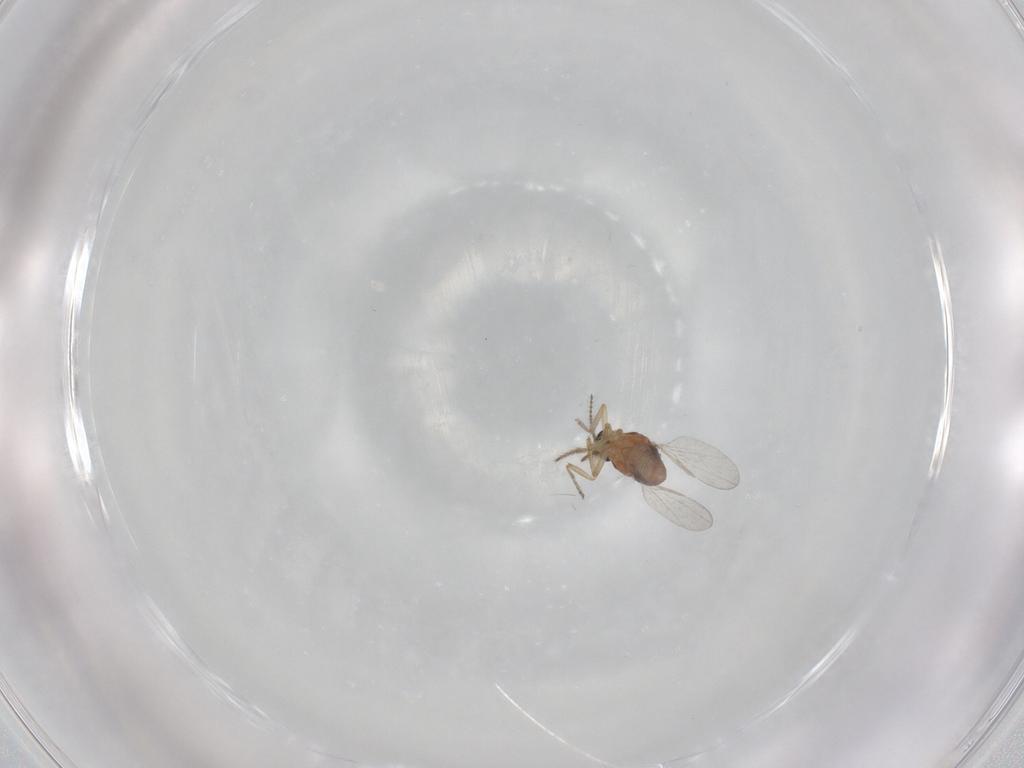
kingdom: Animalia
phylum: Arthropoda
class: Insecta
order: Diptera
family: Ceratopogonidae
